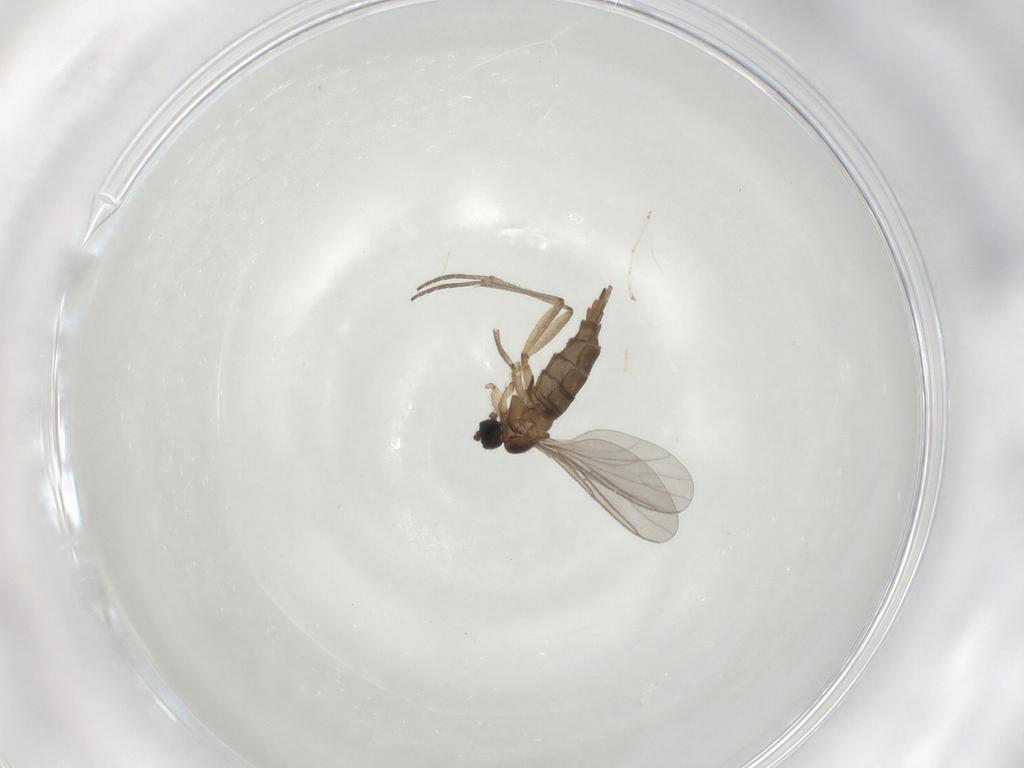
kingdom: Animalia
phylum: Arthropoda
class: Insecta
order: Diptera
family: Sciaridae
